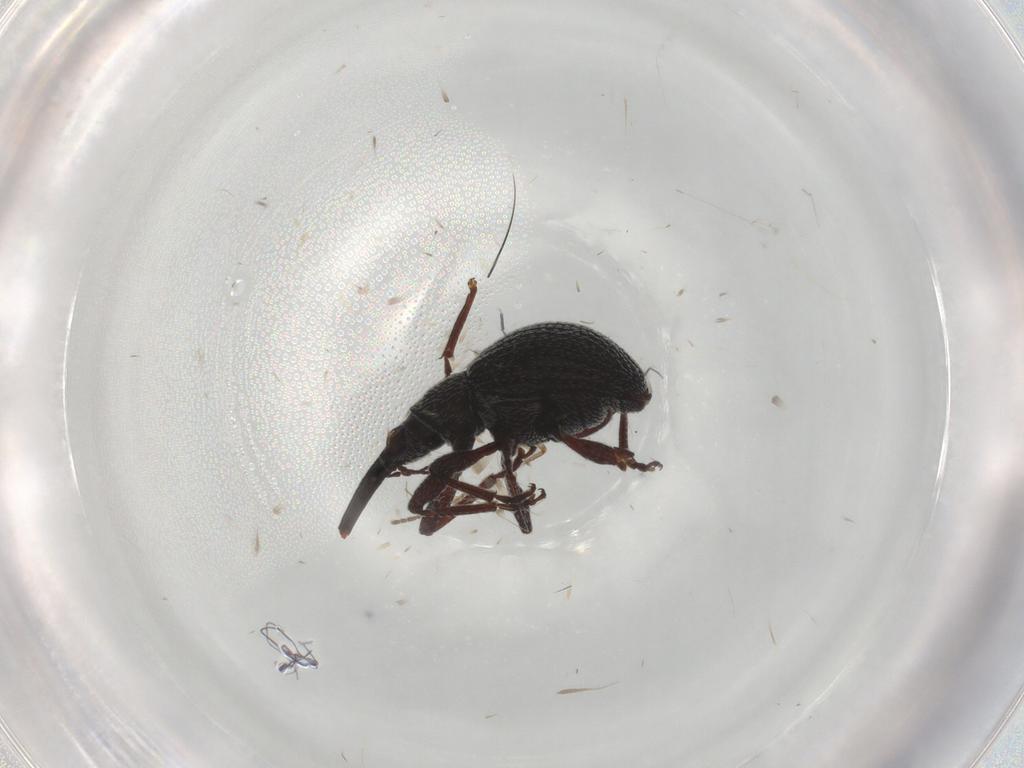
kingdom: Animalia
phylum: Arthropoda
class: Insecta
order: Coleoptera
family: Brentidae
